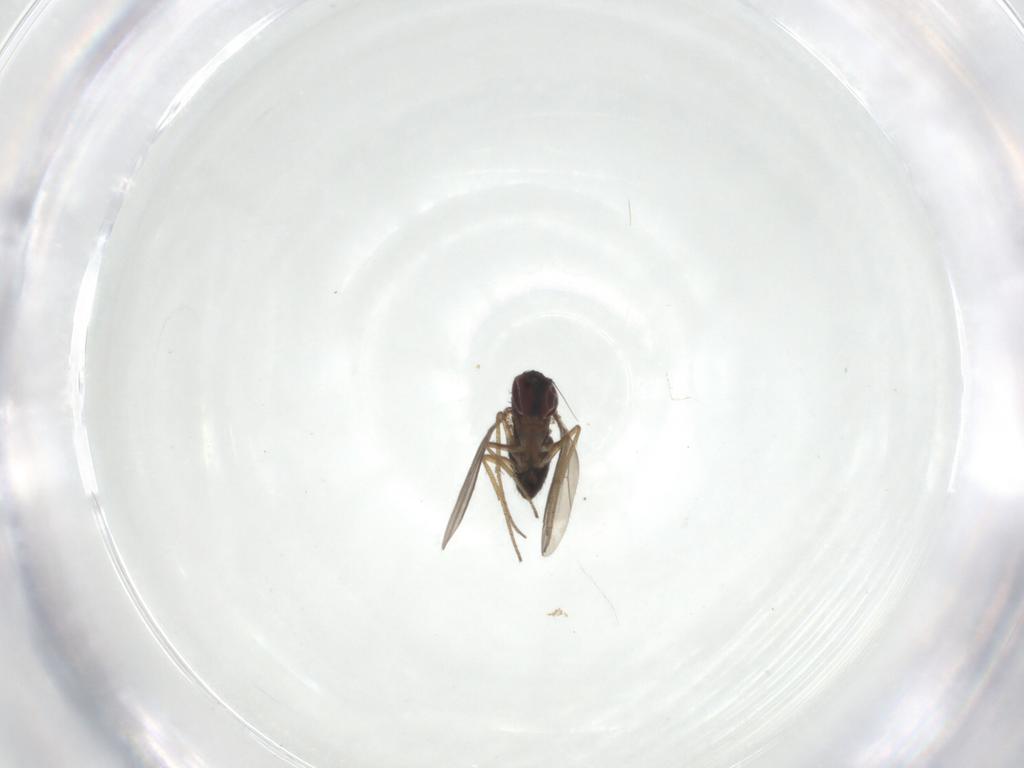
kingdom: Animalia
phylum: Arthropoda
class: Insecta
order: Diptera
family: Dolichopodidae
